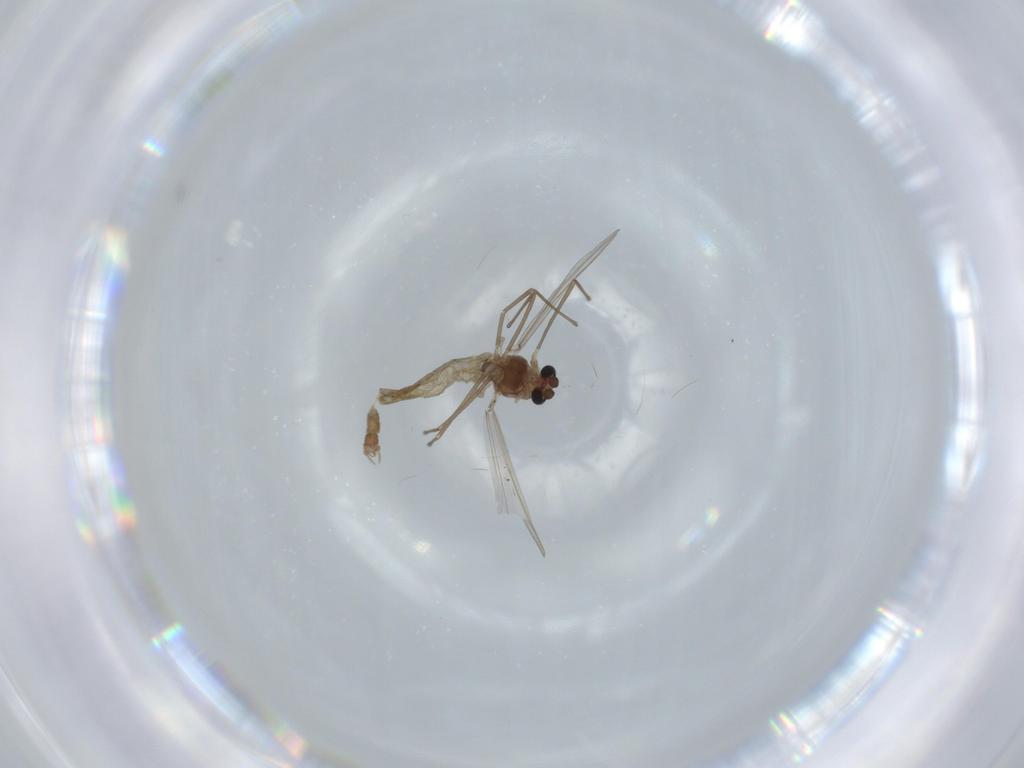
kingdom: Animalia
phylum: Arthropoda
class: Insecta
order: Diptera
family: Chironomidae
